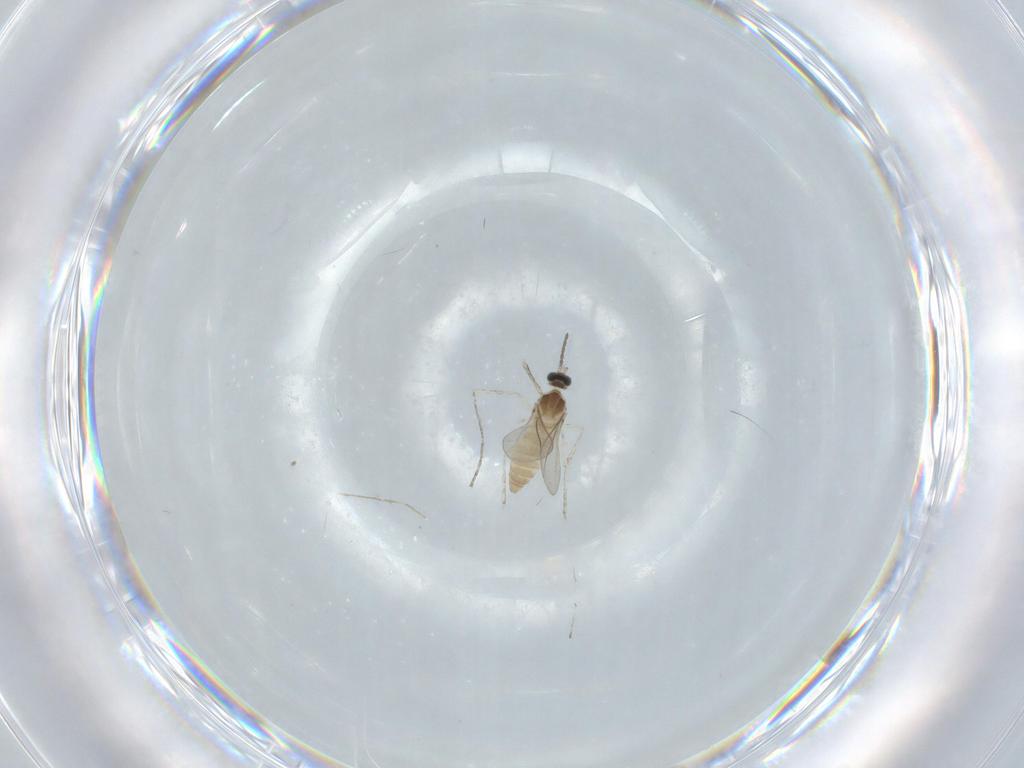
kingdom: Animalia
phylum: Arthropoda
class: Insecta
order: Diptera
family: Cecidomyiidae
